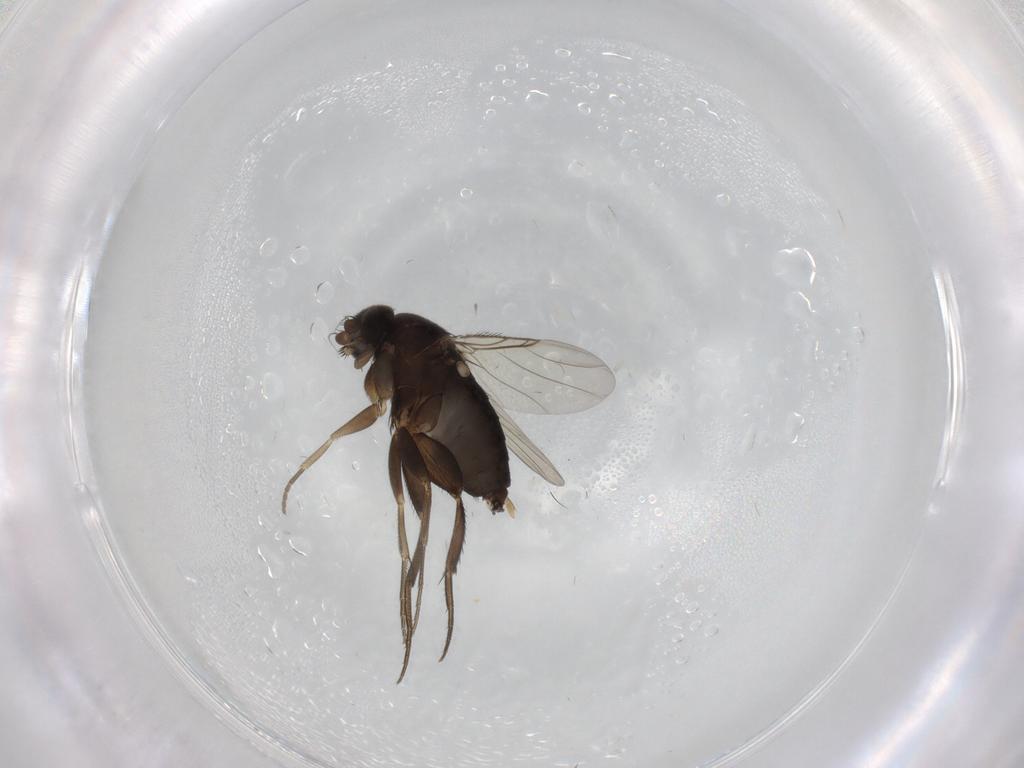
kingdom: Animalia
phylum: Arthropoda
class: Insecta
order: Diptera
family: Phoridae
